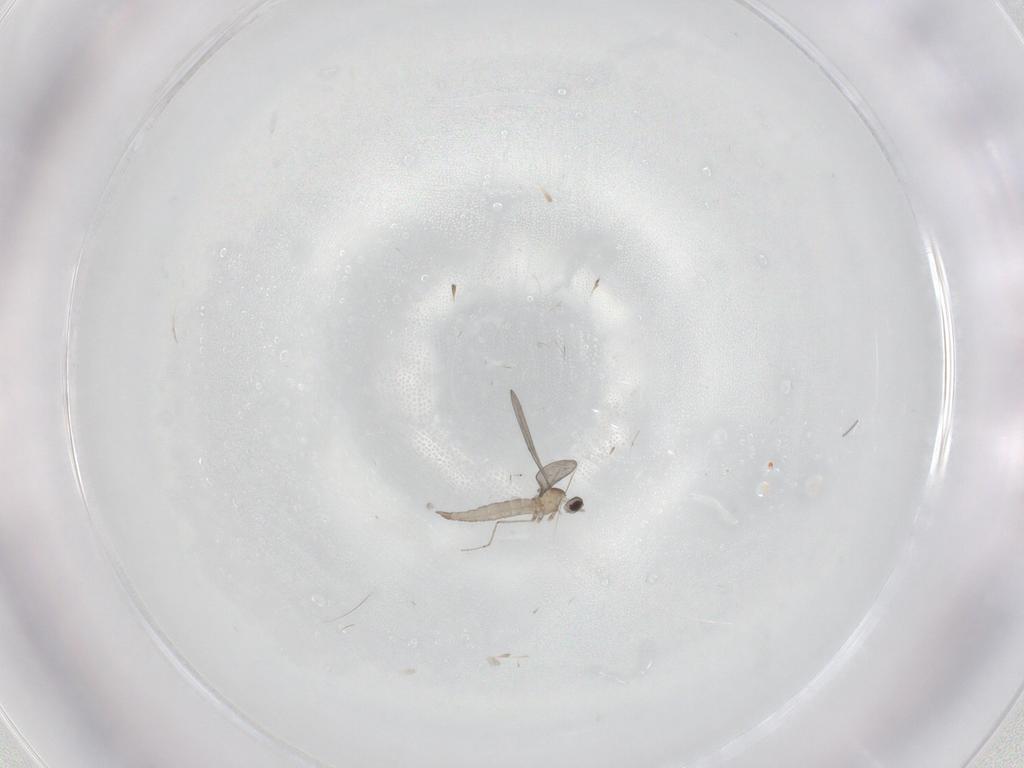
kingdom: Animalia
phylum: Arthropoda
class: Insecta
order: Diptera
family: Cecidomyiidae
